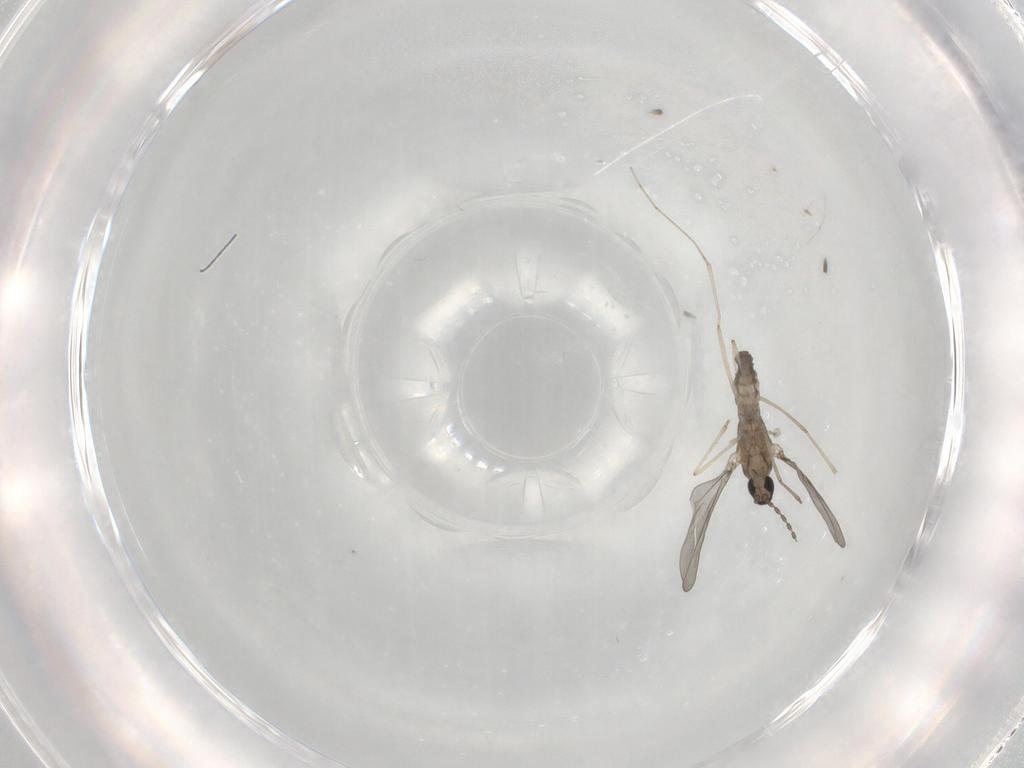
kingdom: Animalia
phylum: Arthropoda
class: Insecta
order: Diptera
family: Cecidomyiidae
